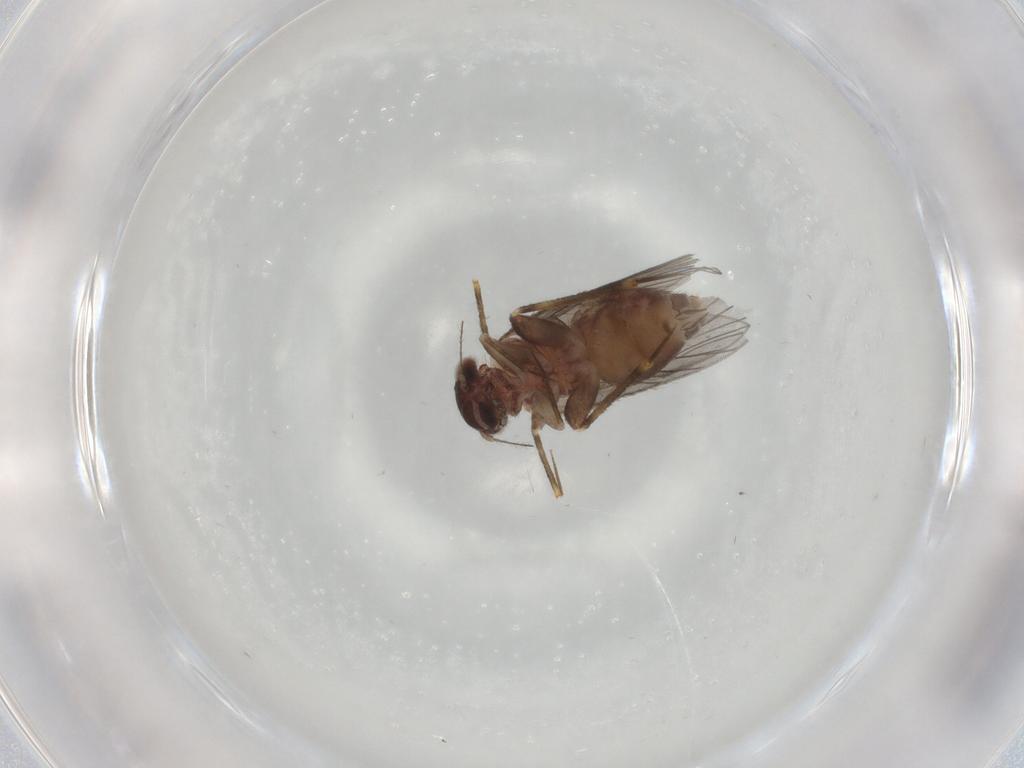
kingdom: Animalia
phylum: Arthropoda
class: Insecta
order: Psocodea
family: Lepidopsocidae
